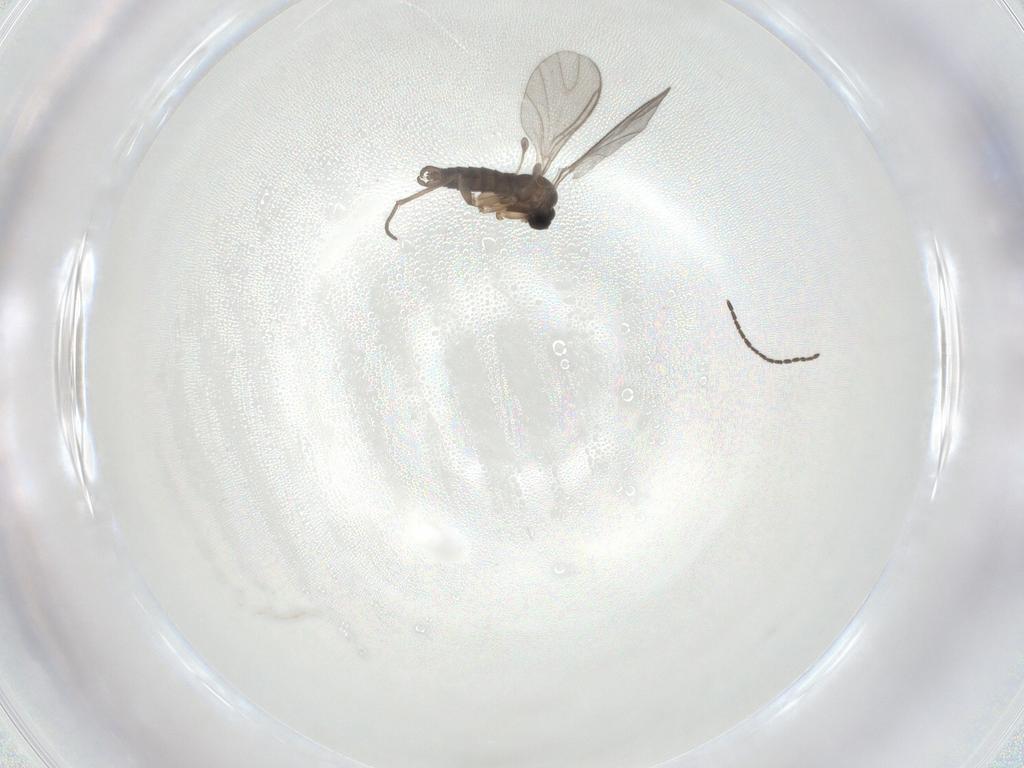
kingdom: Animalia
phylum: Arthropoda
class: Insecta
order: Diptera
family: Sciaridae
